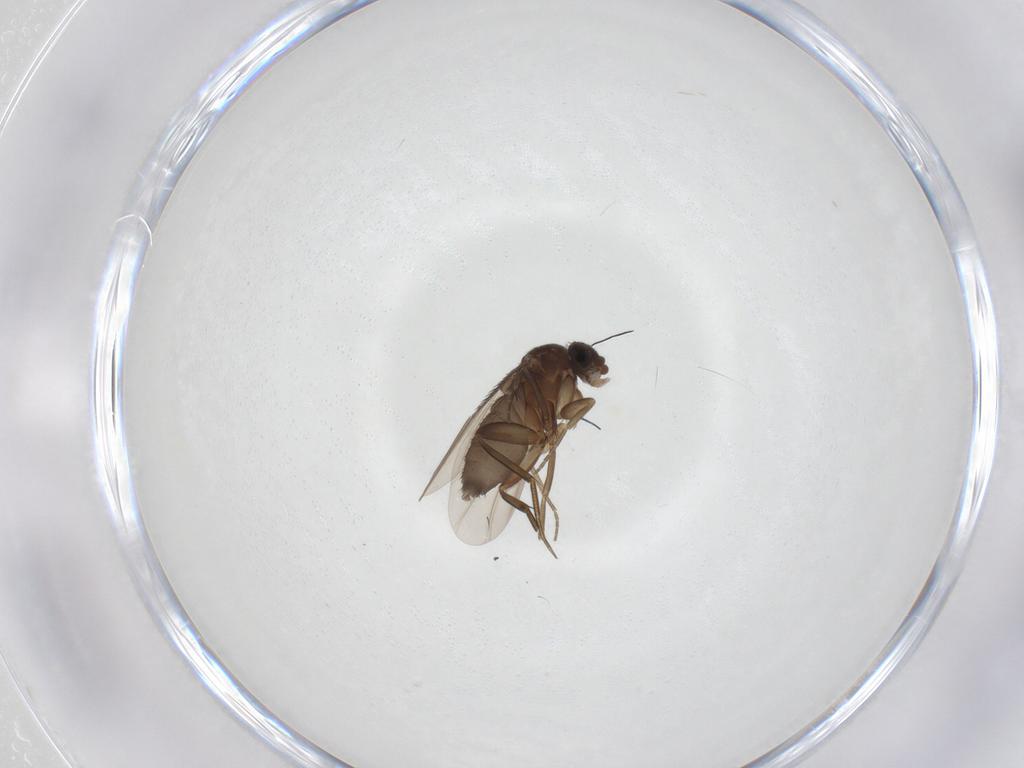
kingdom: Animalia
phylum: Arthropoda
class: Insecta
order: Diptera
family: Phoridae
